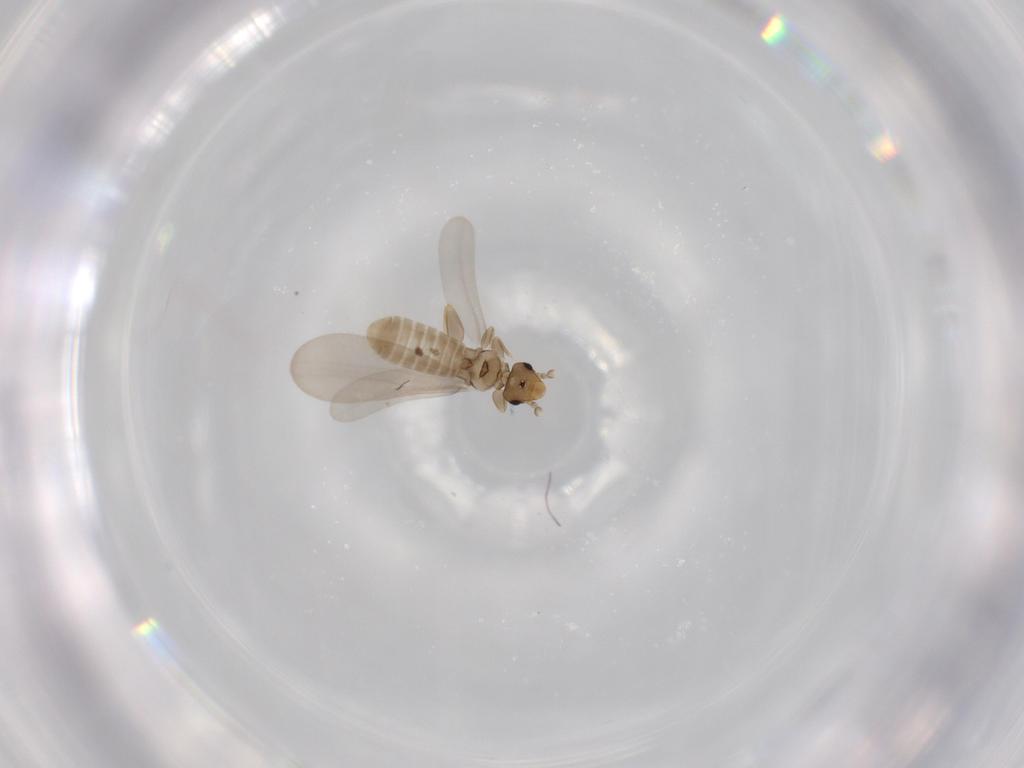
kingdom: Animalia
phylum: Arthropoda
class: Insecta
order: Psocodea
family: Liposcelididae
